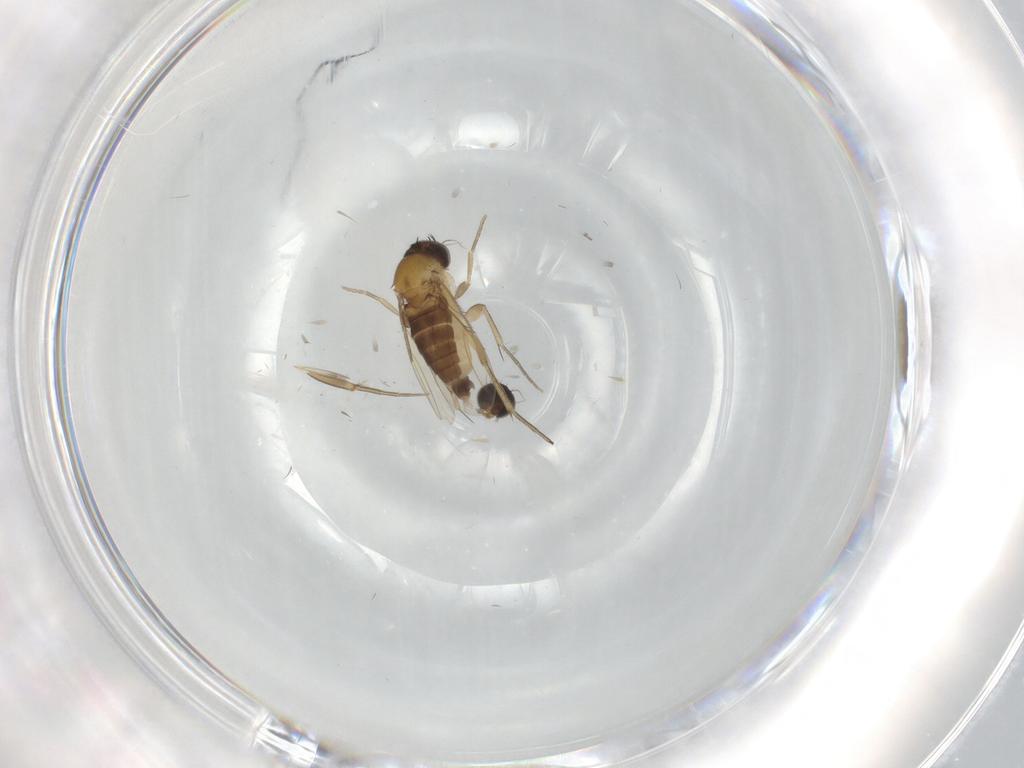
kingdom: Animalia
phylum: Arthropoda
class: Insecta
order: Diptera
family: Phoridae
